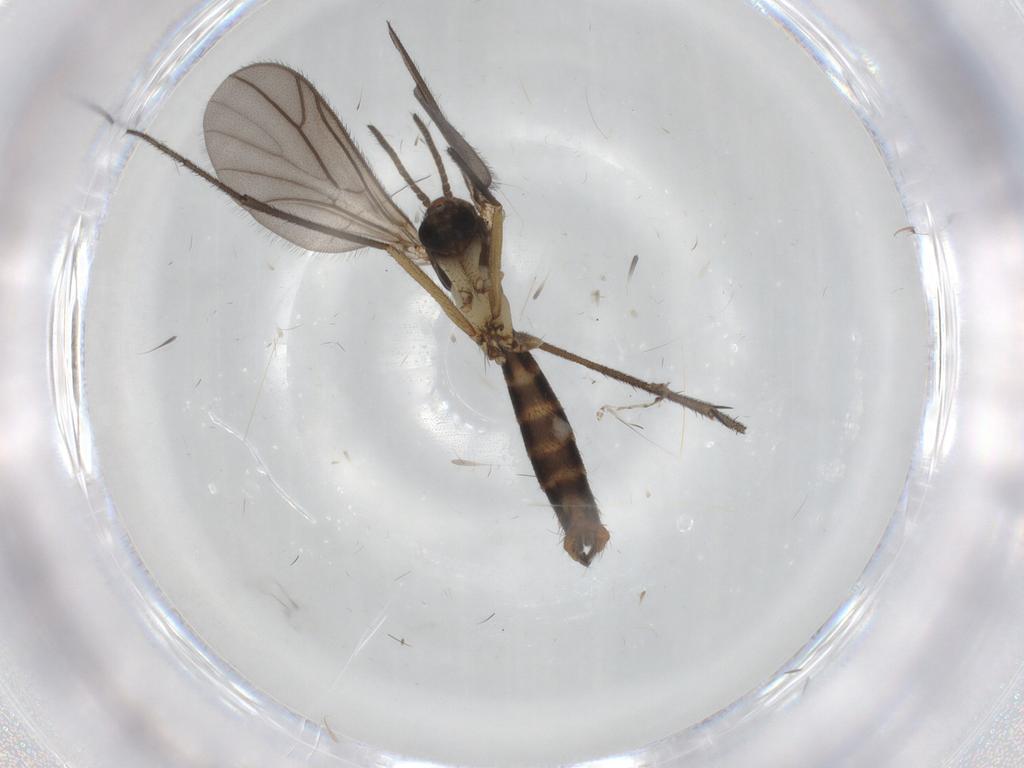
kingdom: Animalia
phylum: Arthropoda
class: Insecta
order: Diptera
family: Ditomyiidae
